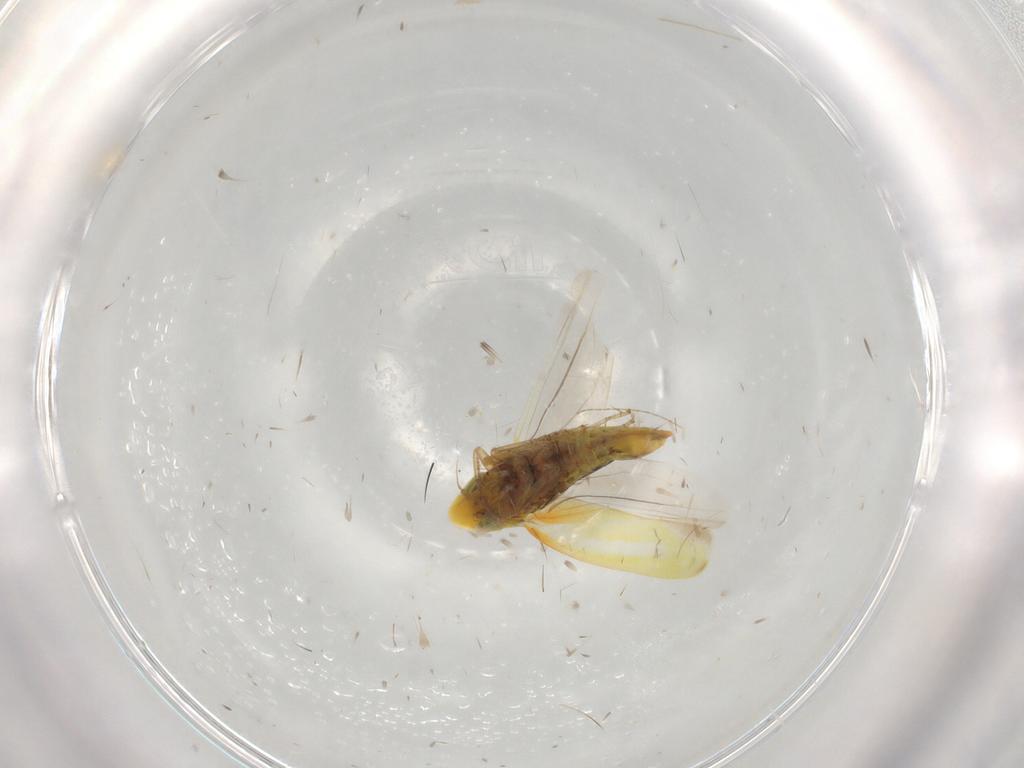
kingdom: Animalia
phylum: Arthropoda
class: Insecta
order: Hemiptera
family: Cicadellidae
